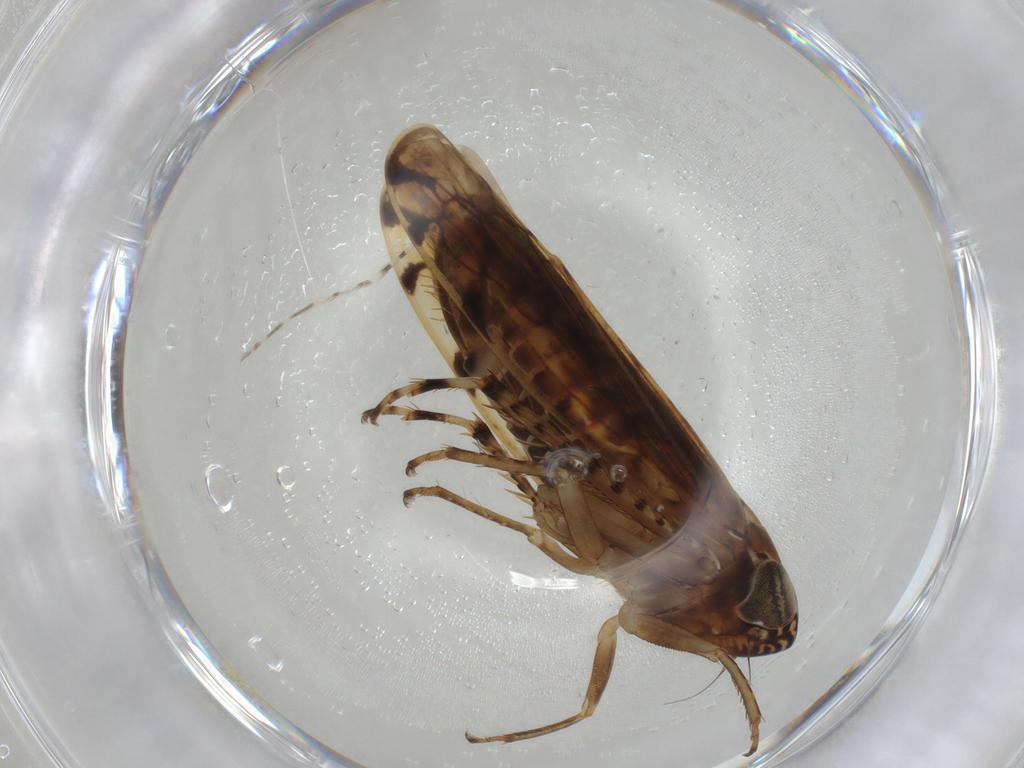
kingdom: Animalia
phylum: Arthropoda
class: Insecta
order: Hemiptera
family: Cicadellidae
